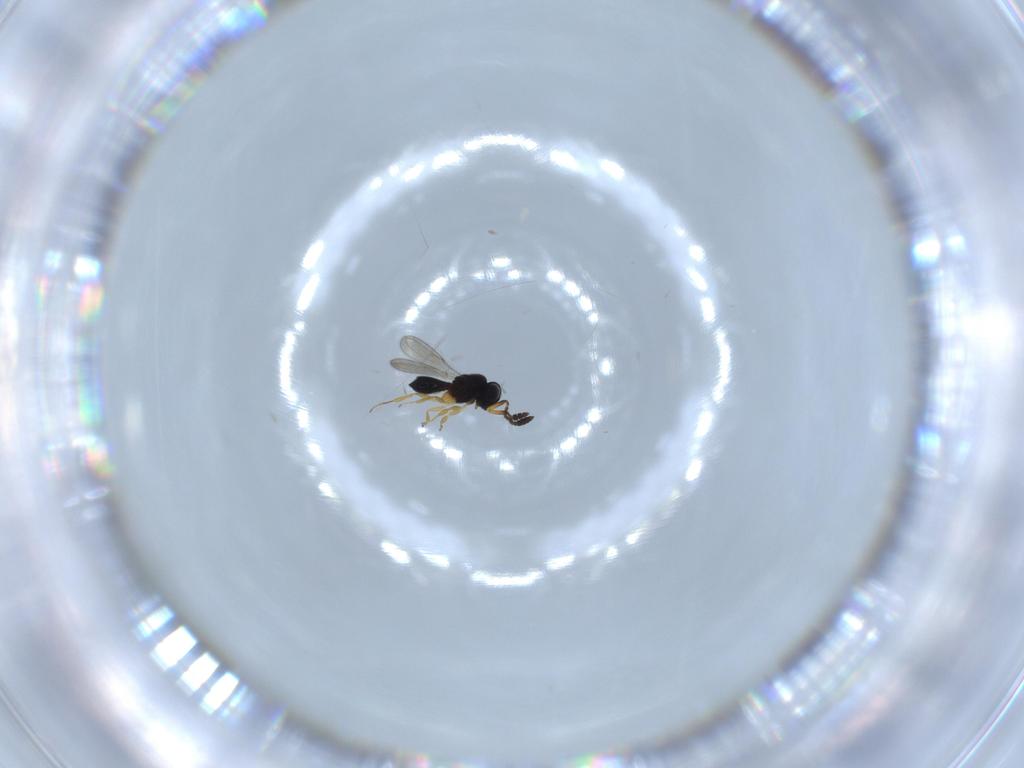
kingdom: Animalia
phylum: Arthropoda
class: Insecta
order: Hymenoptera
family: Scelionidae
